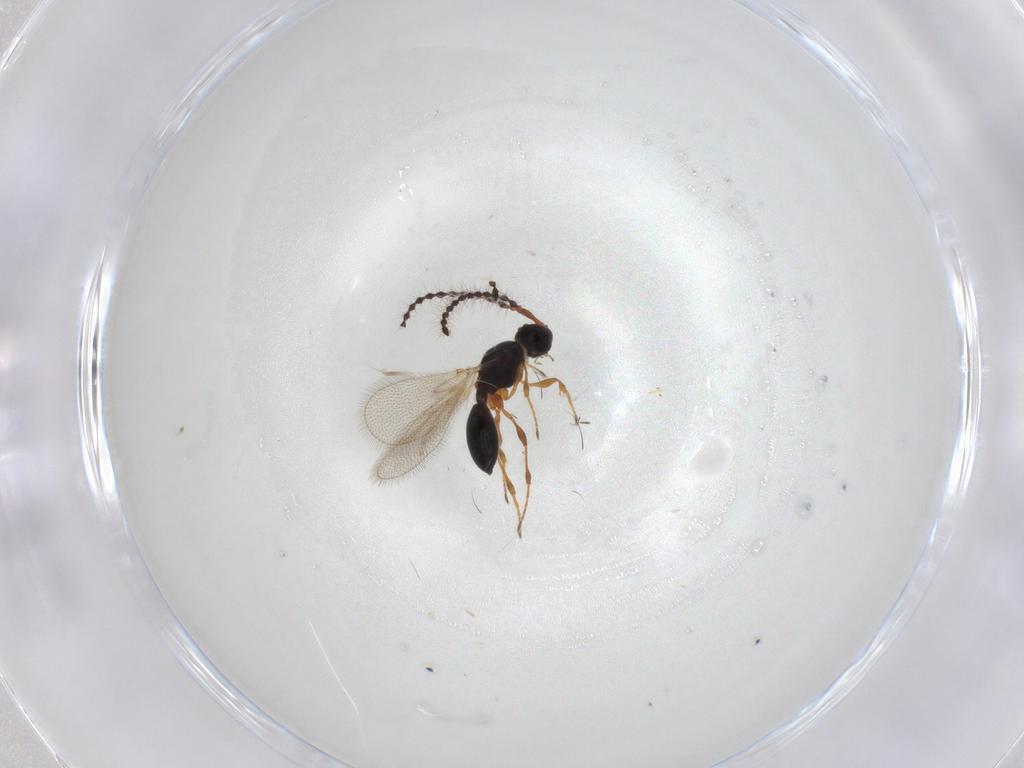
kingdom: Animalia
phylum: Arthropoda
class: Insecta
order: Hymenoptera
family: Diapriidae
